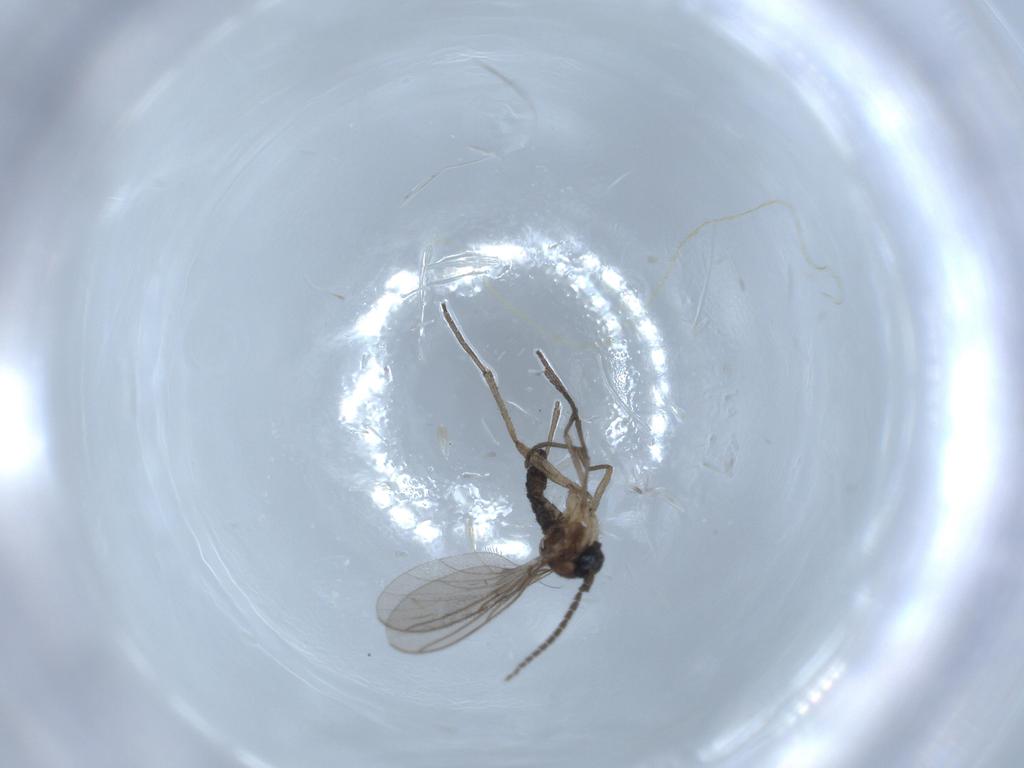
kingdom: Animalia
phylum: Arthropoda
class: Insecta
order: Diptera
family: Sciaridae
